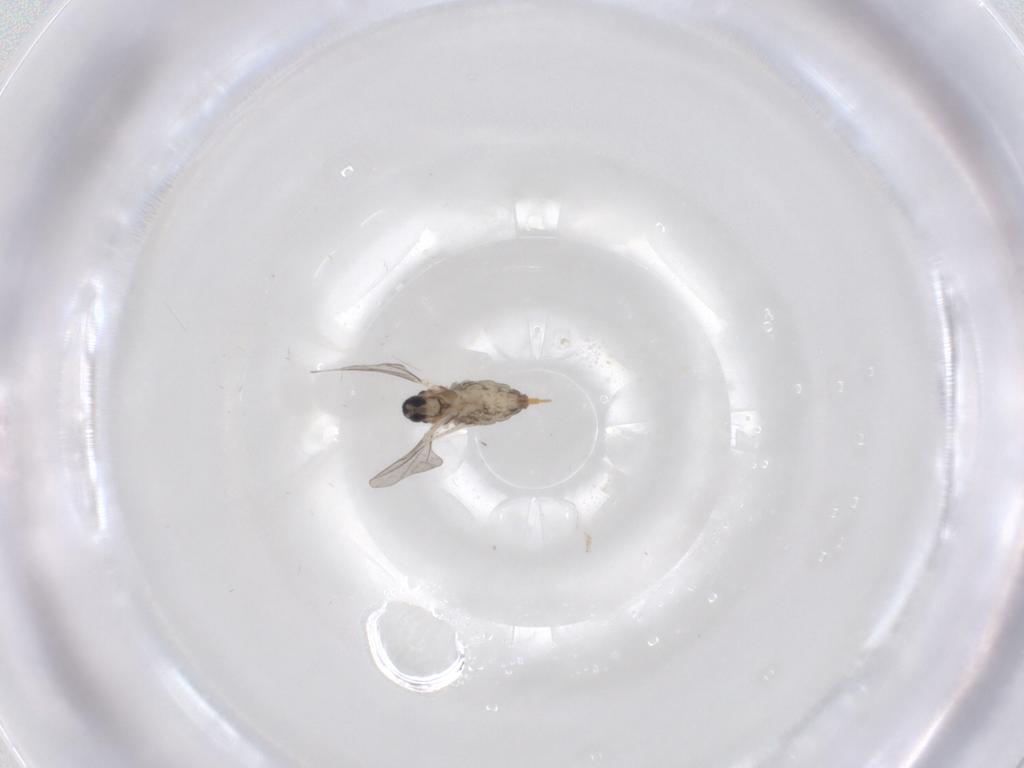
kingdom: Animalia
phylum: Arthropoda
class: Insecta
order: Diptera
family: Cecidomyiidae
